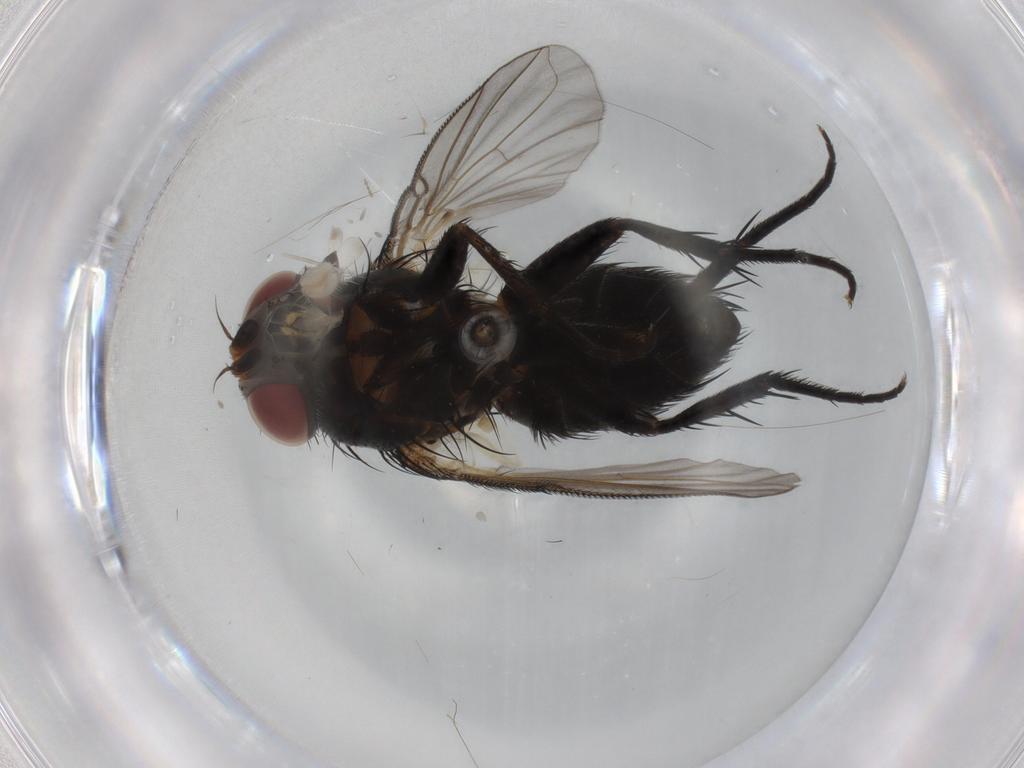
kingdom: Animalia
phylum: Arthropoda
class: Insecta
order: Diptera
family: Tachinidae
